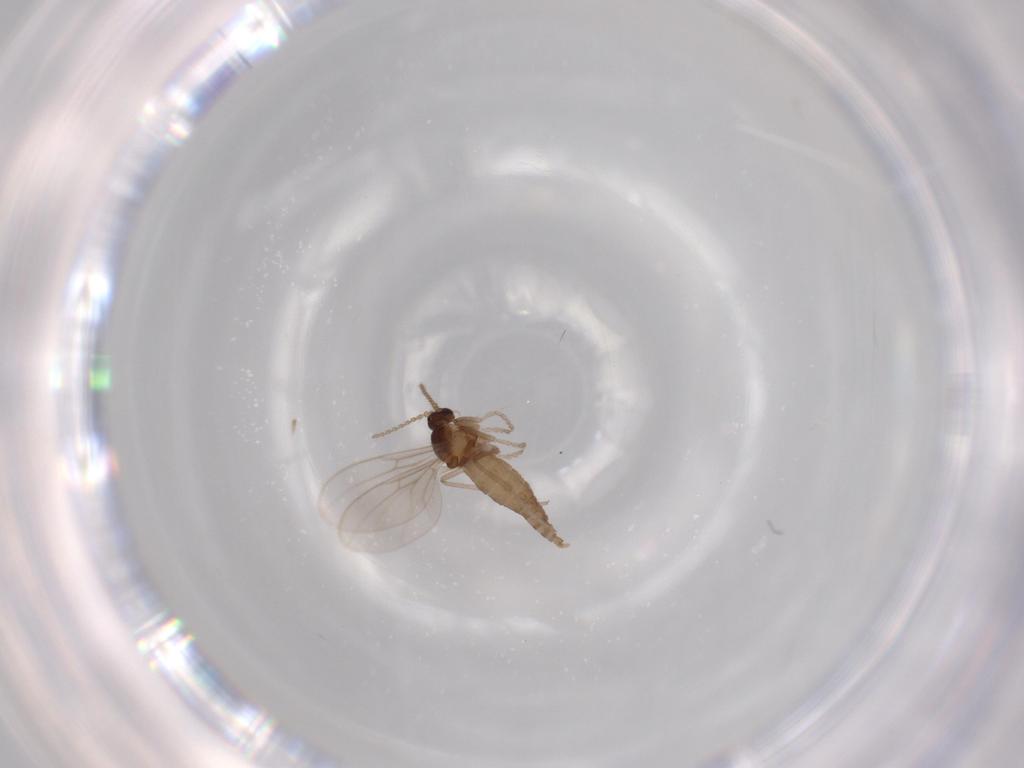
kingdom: Animalia
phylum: Arthropoda
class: Insecta
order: Diptera
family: Cecidomyiidae
